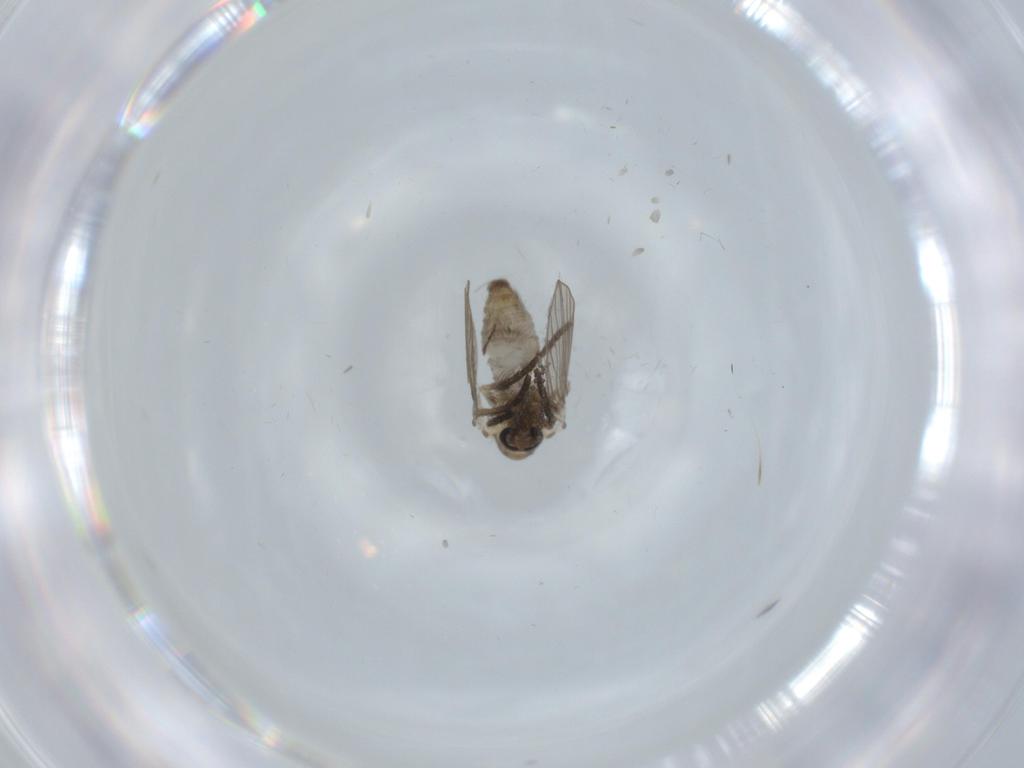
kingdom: Animalia
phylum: Arthropoda
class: Insecta
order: Diptera
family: Psychodidae
